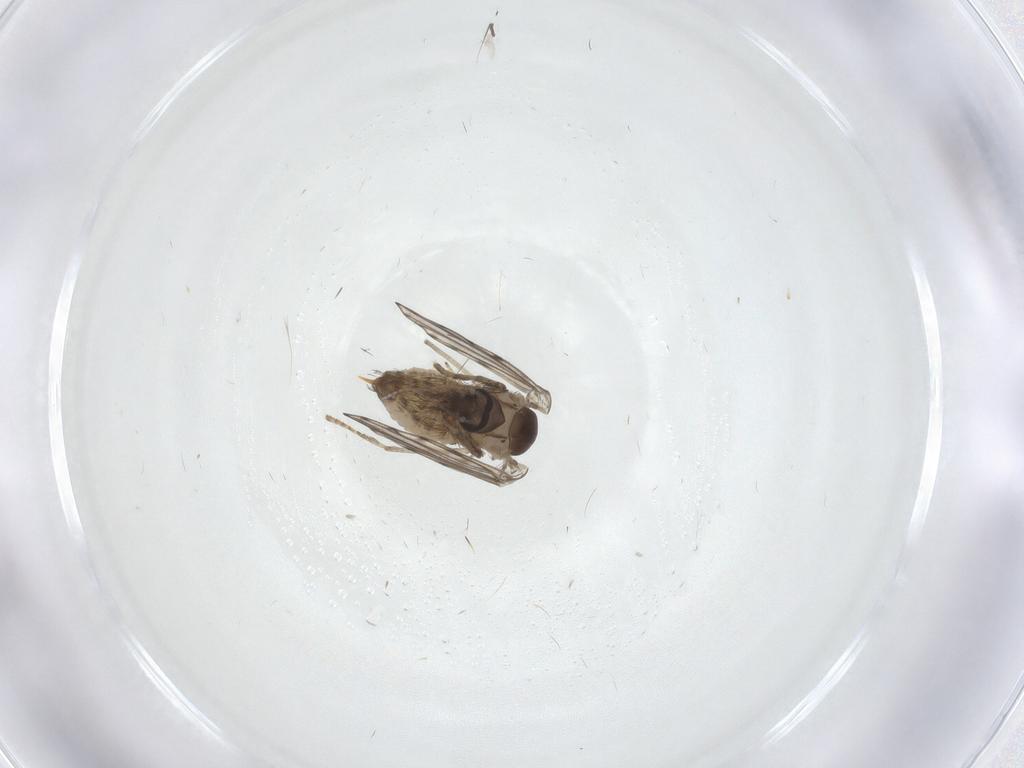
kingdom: Animalia
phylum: Arthropoda
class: Insecta
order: Diptera
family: Psychodidae
